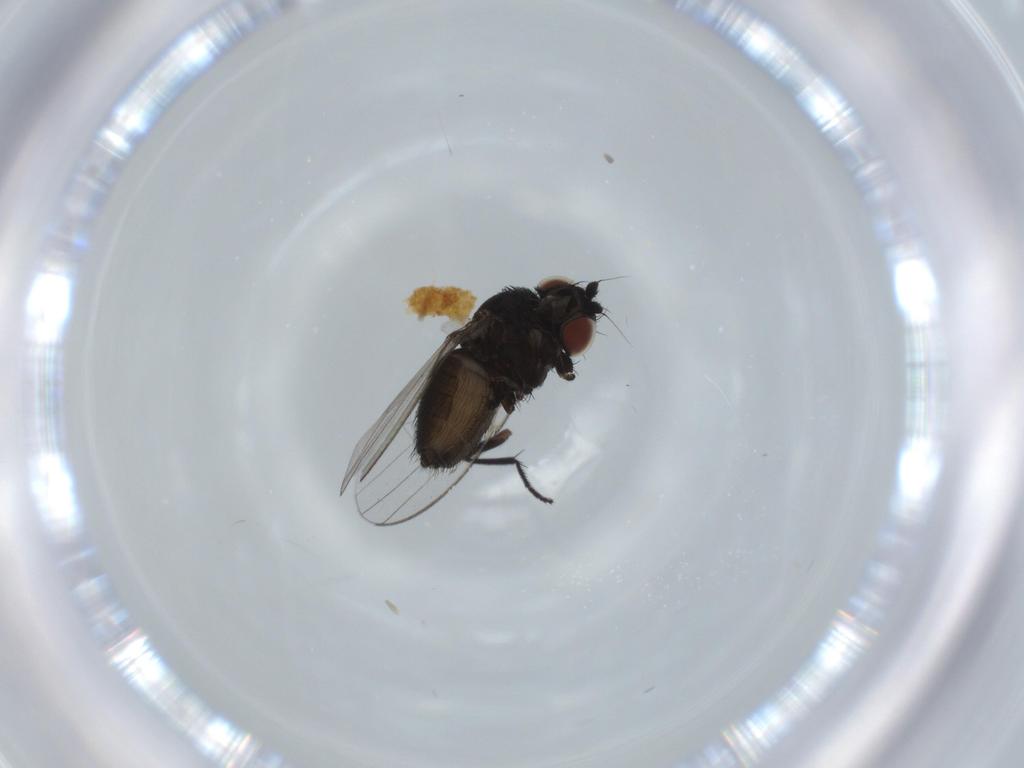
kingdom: Animalia
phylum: Arthropoda
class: Insecta
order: Diptera
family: Milichiidae
